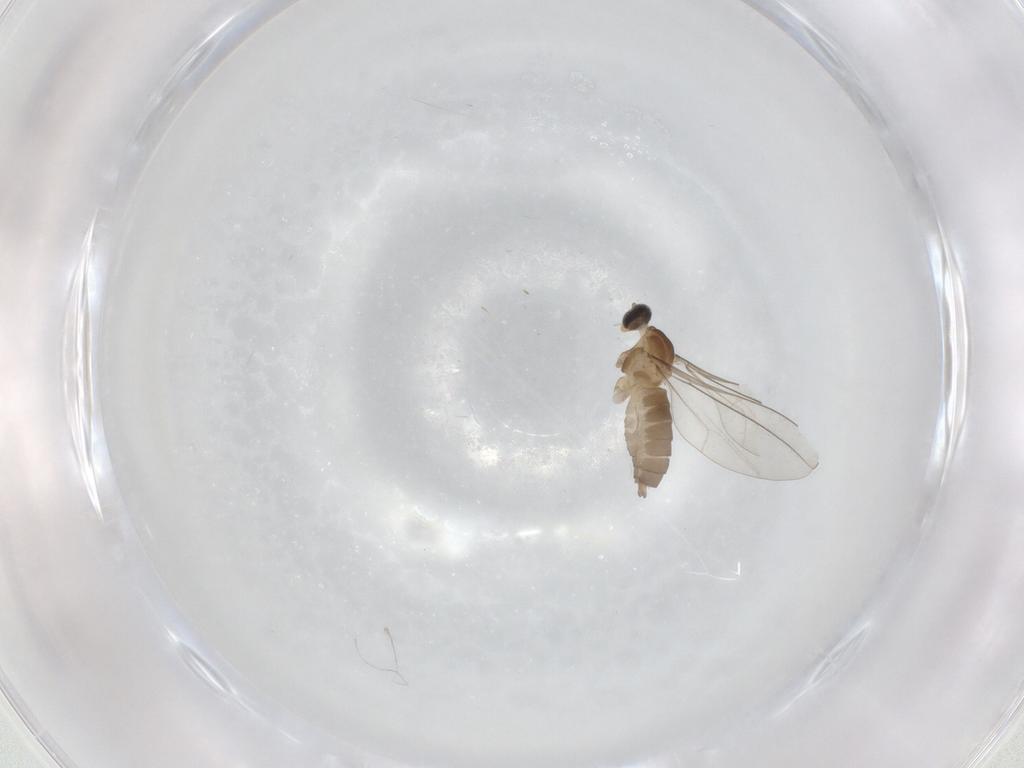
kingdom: Animalia
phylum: Arthropoda
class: Insecta
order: Diptera
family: Cecidomyiidae
